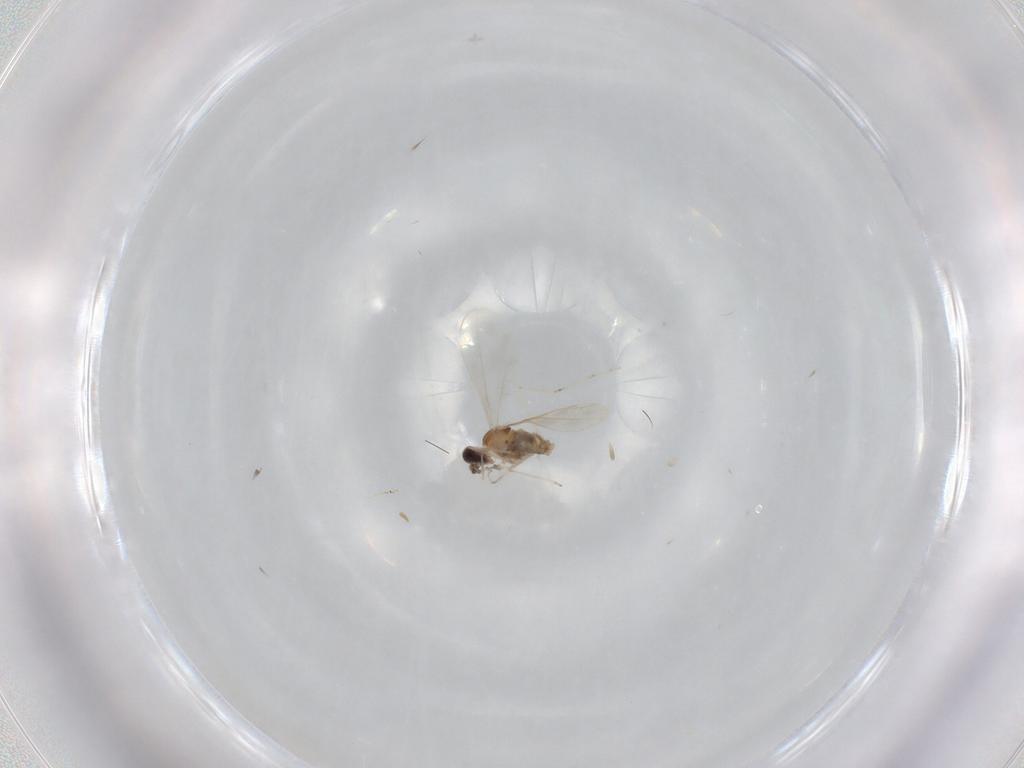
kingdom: Animalia
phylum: Arthropoda
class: Insecta
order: Diptera
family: Cecidomyiidae
